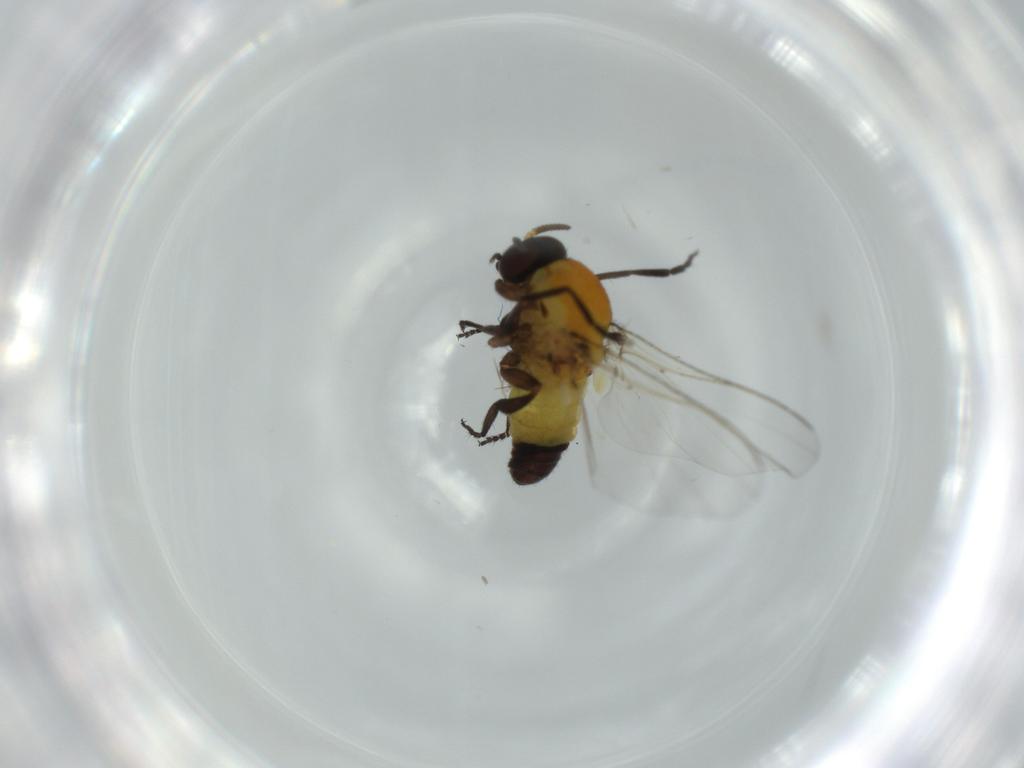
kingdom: Animalia
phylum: Arthropoda
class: Insecta
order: Diptera
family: Simuliidae
